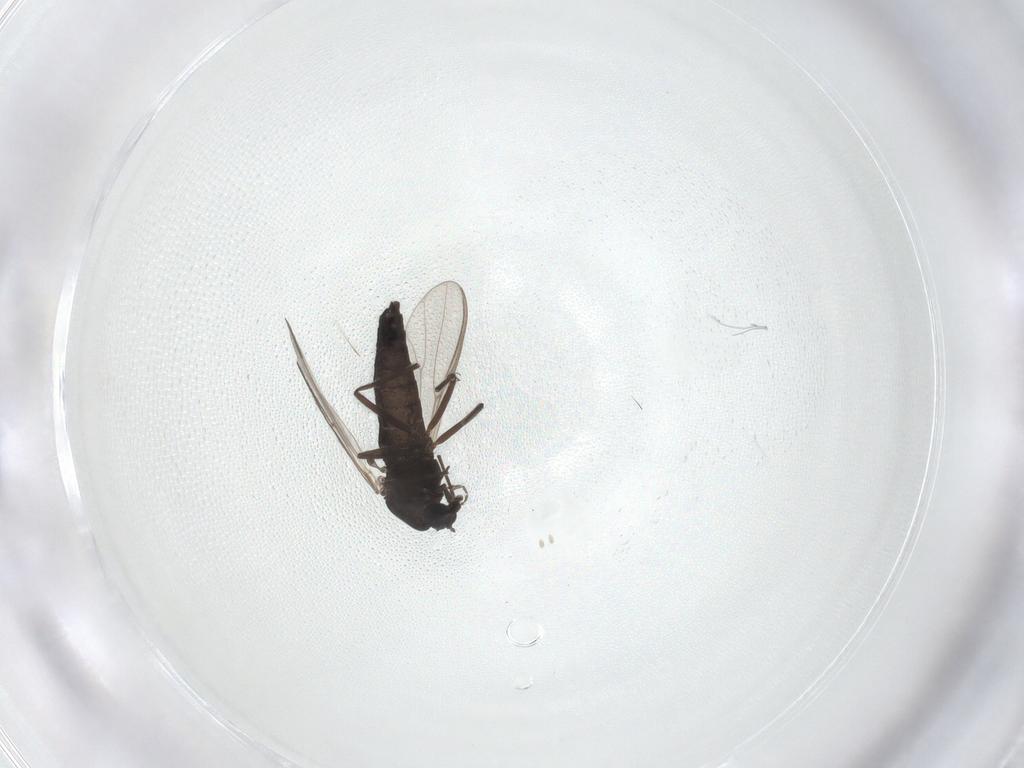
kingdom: Animalia
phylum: Arthropoda
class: Insecta
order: Diptera
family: Chironomidae
